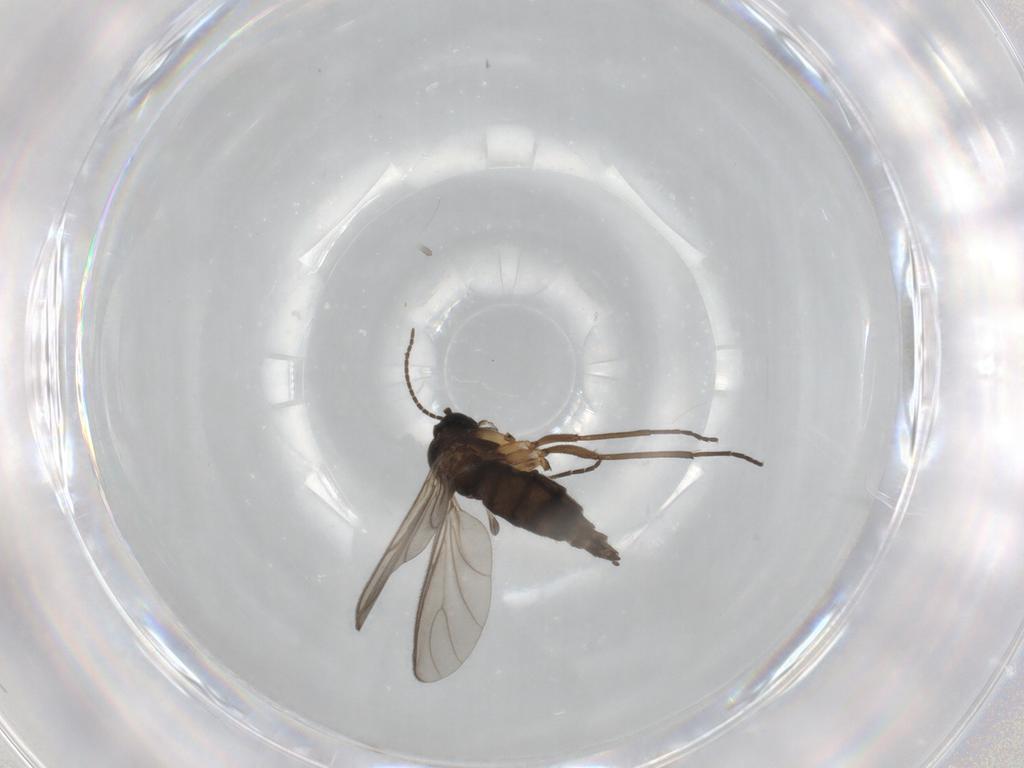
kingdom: Animalia
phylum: Arthropoda
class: Insecta
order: Diptera
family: Sciaridae
